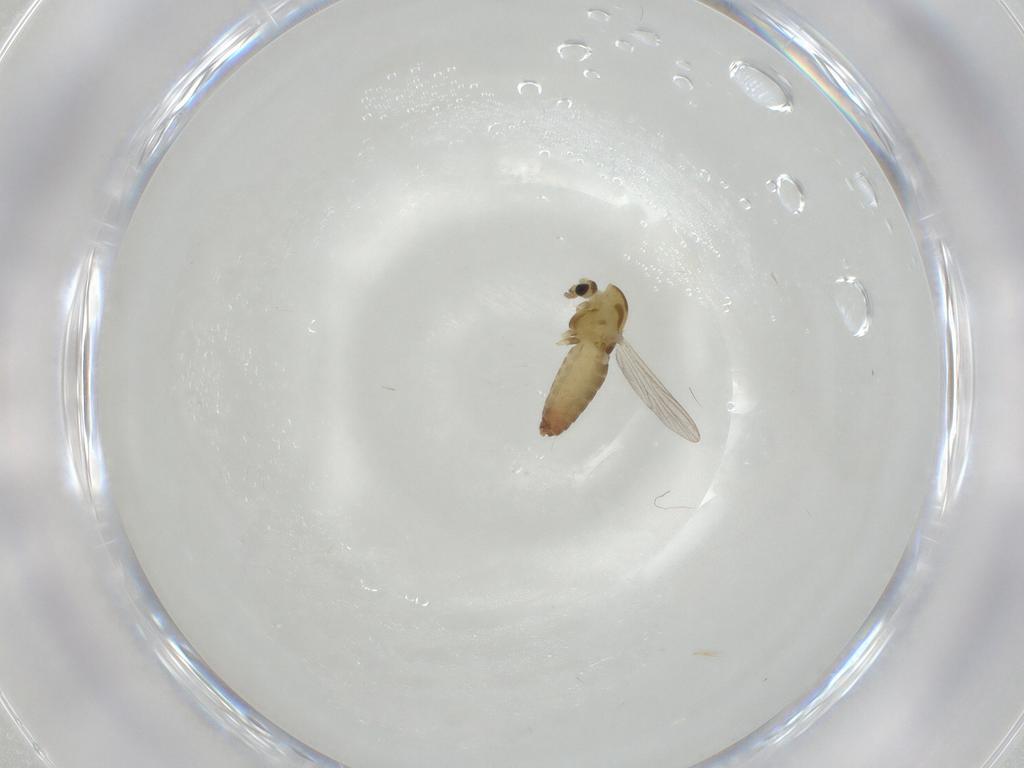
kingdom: Animalia
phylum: Arthropoda
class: Insecta
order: Diptera
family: Chironomidae
